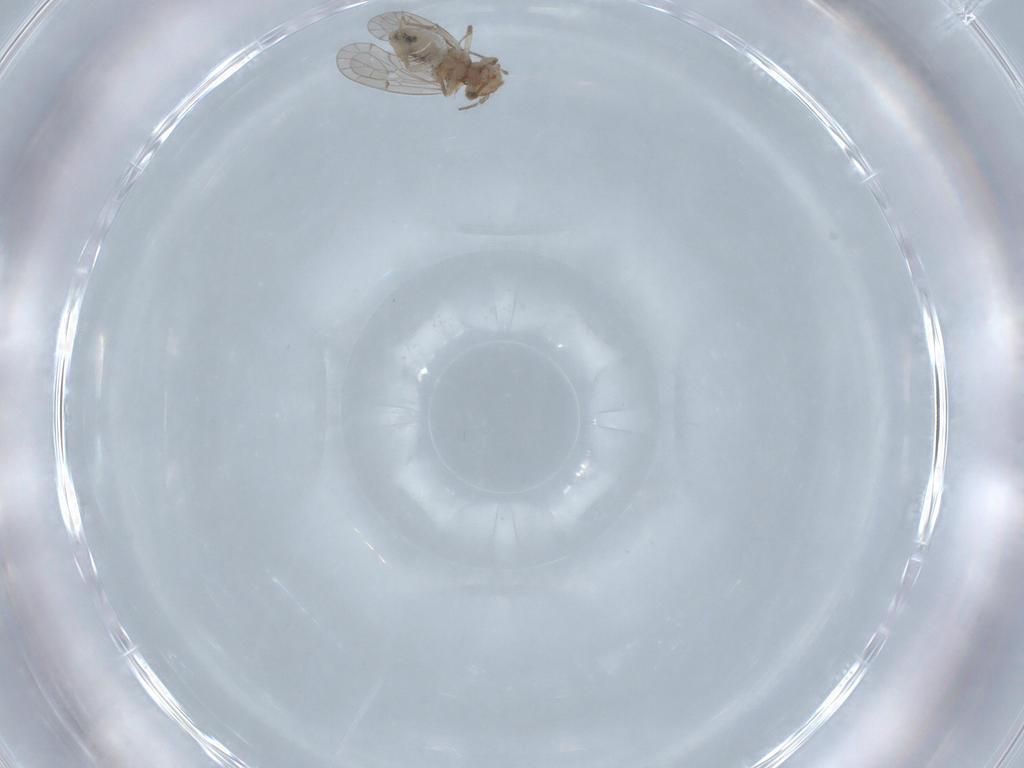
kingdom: Animalia
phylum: Arthropoda
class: Insecta
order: Psocodea
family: Ectopsocidae
